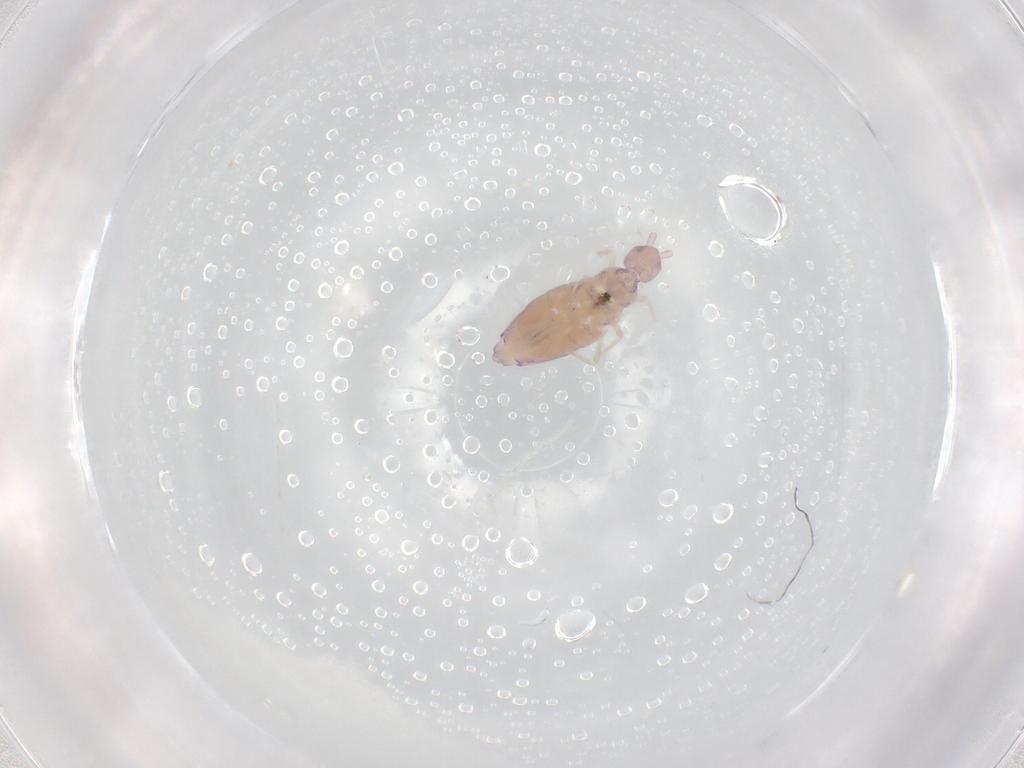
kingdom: Animalia
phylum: Arthropoda
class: Collembola
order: Entomobryomorpha
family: Entomobryidae
